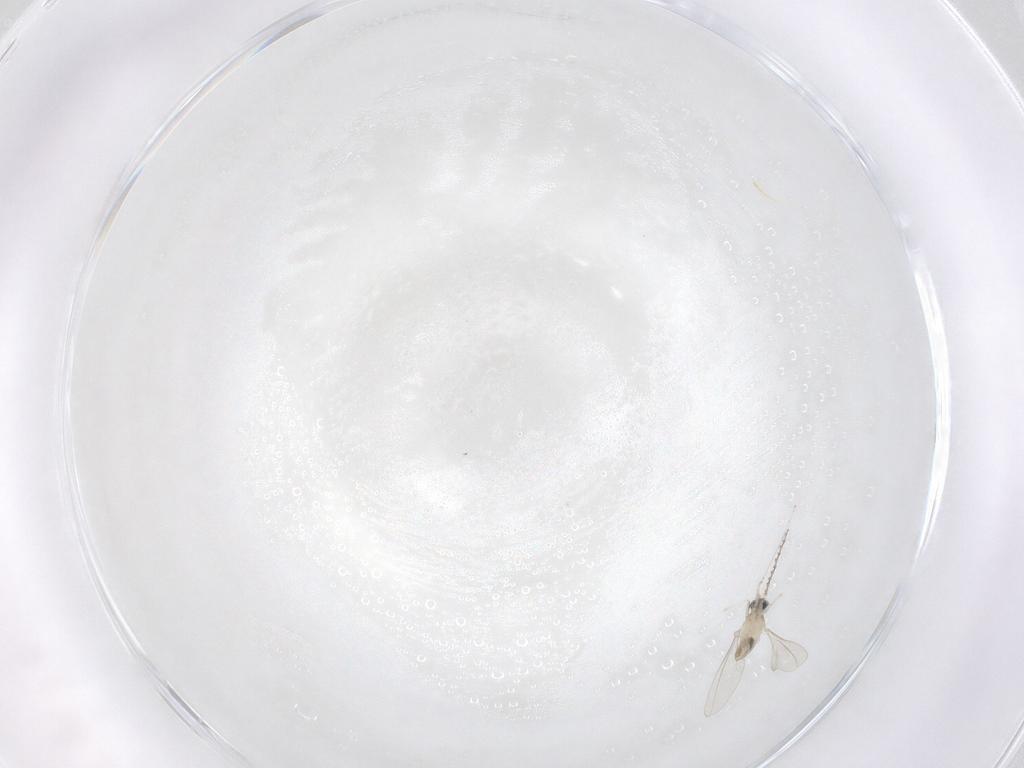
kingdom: Animalia
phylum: Arthropoda
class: Insecta
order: Diptera
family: Cecidomyiidae
